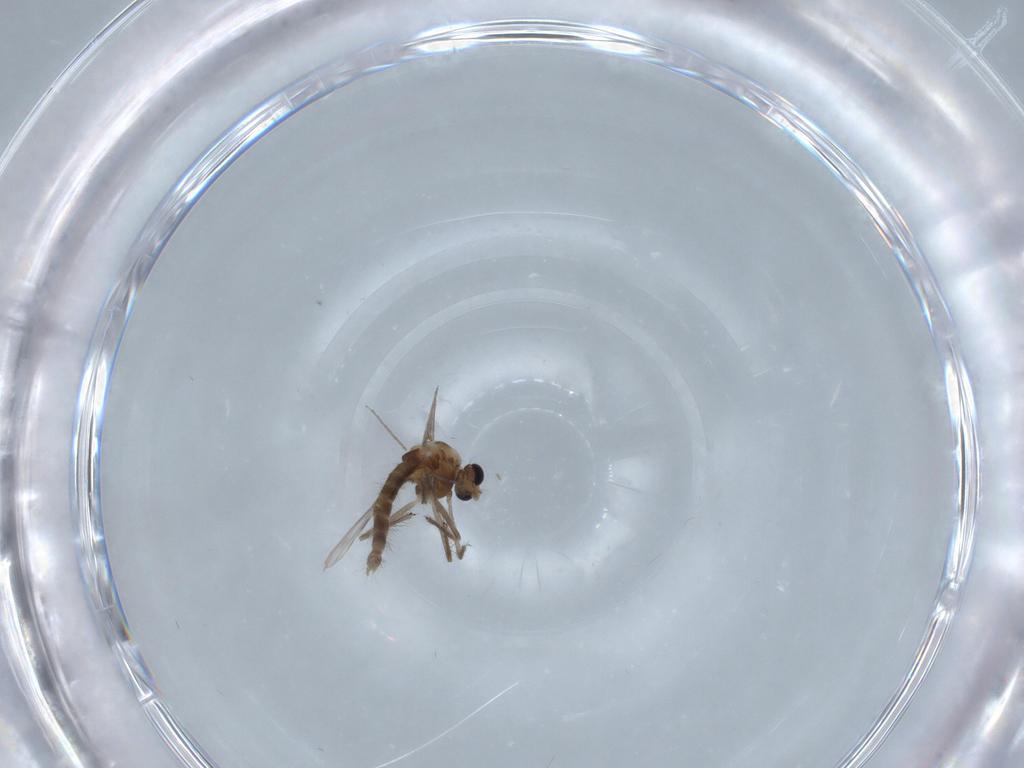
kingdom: Animalia
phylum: Arthropoda
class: Insecta
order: Diptera
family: Chironomidae
